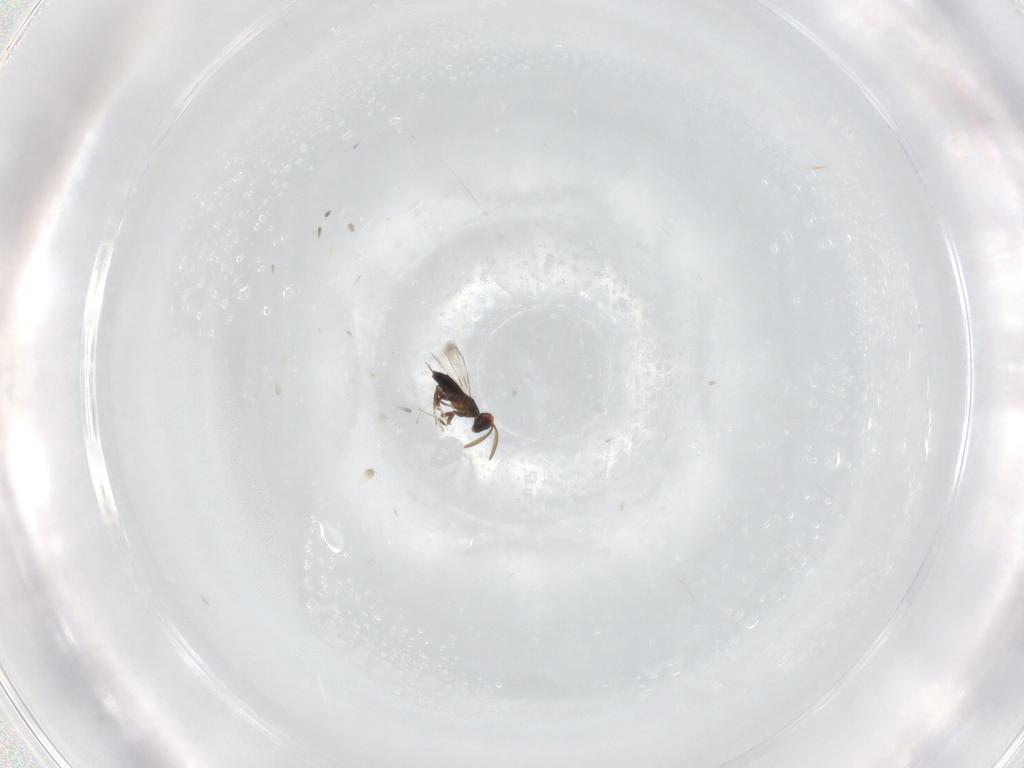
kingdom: Animalia
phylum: Arthropoda
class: Insecta
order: Hymenoptera
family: Signiphoridae
